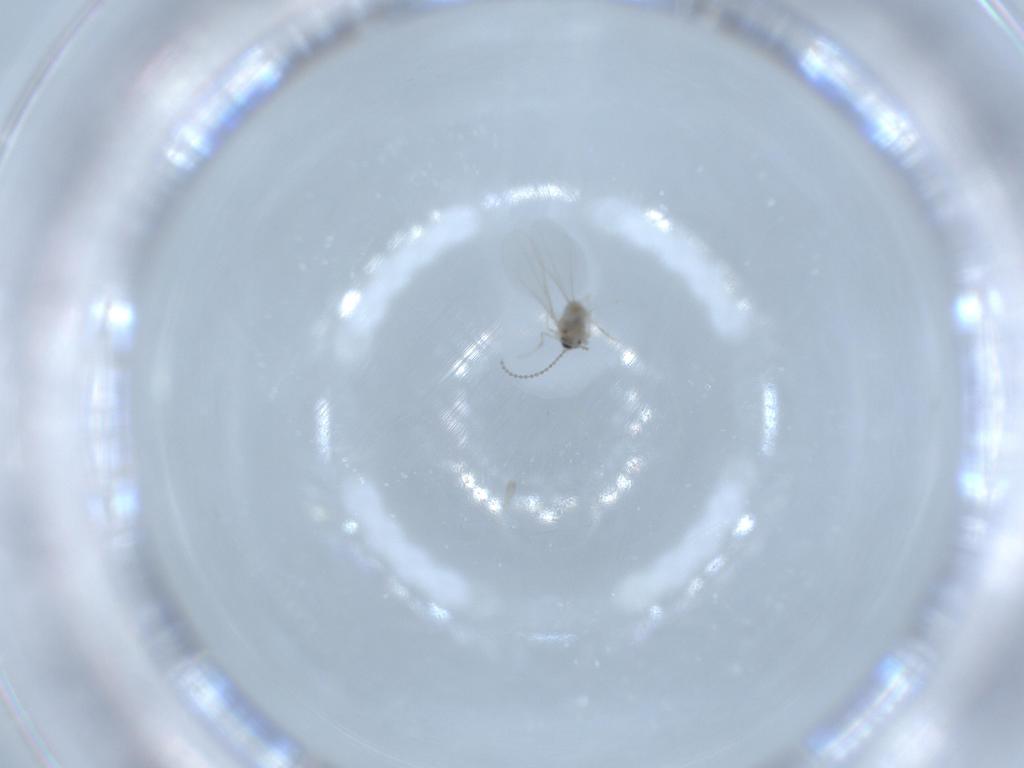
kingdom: Animalia
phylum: Arthropoda
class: Insecta
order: Diptera
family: Cecidomyiidae
